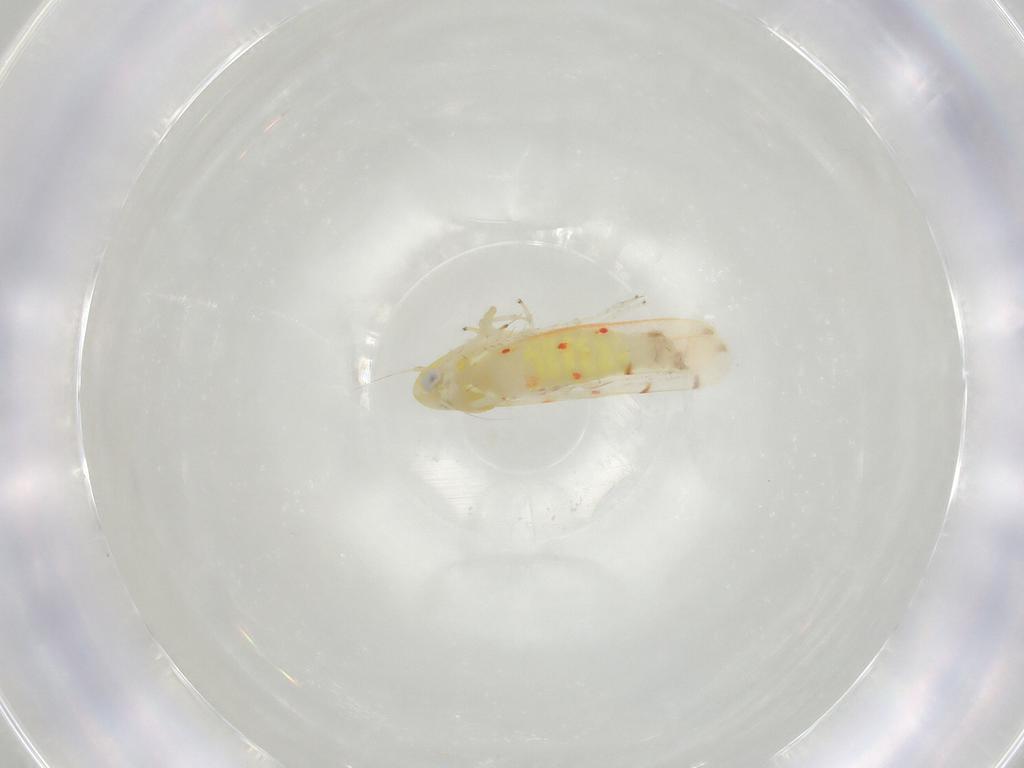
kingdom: Animalia
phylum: Arthropoda
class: Insecta
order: Hemiptera
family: Cicadellidae
